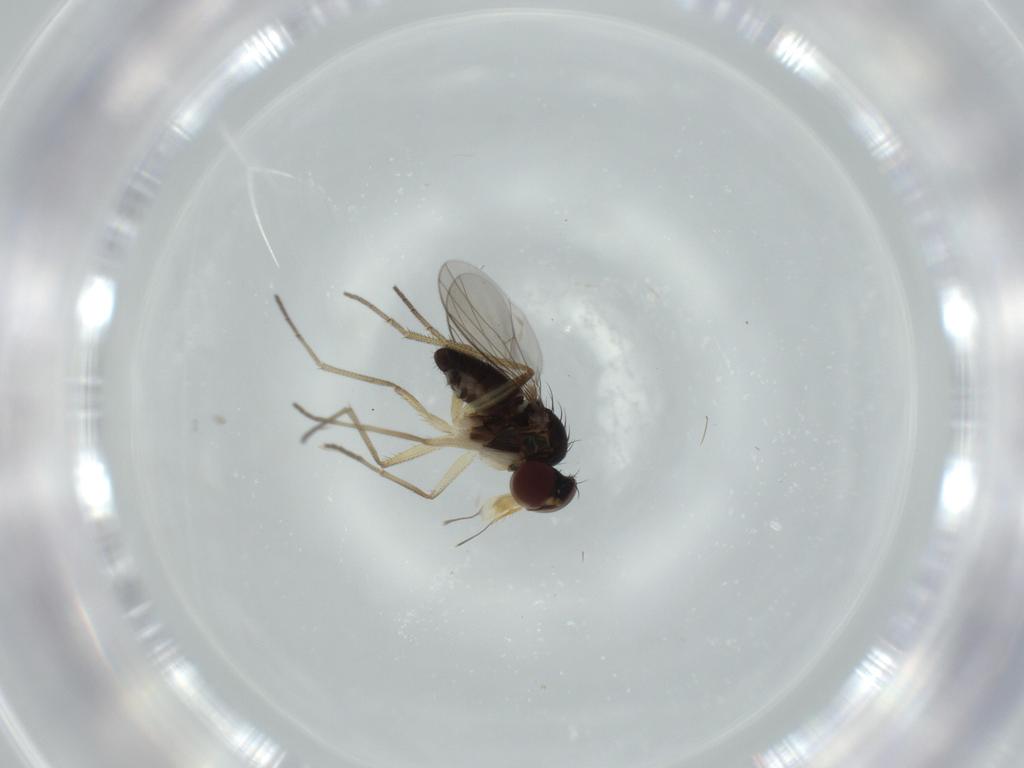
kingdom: Animalia
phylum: Arthropoda
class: Insecta
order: Diptera
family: Dolichopodidae
